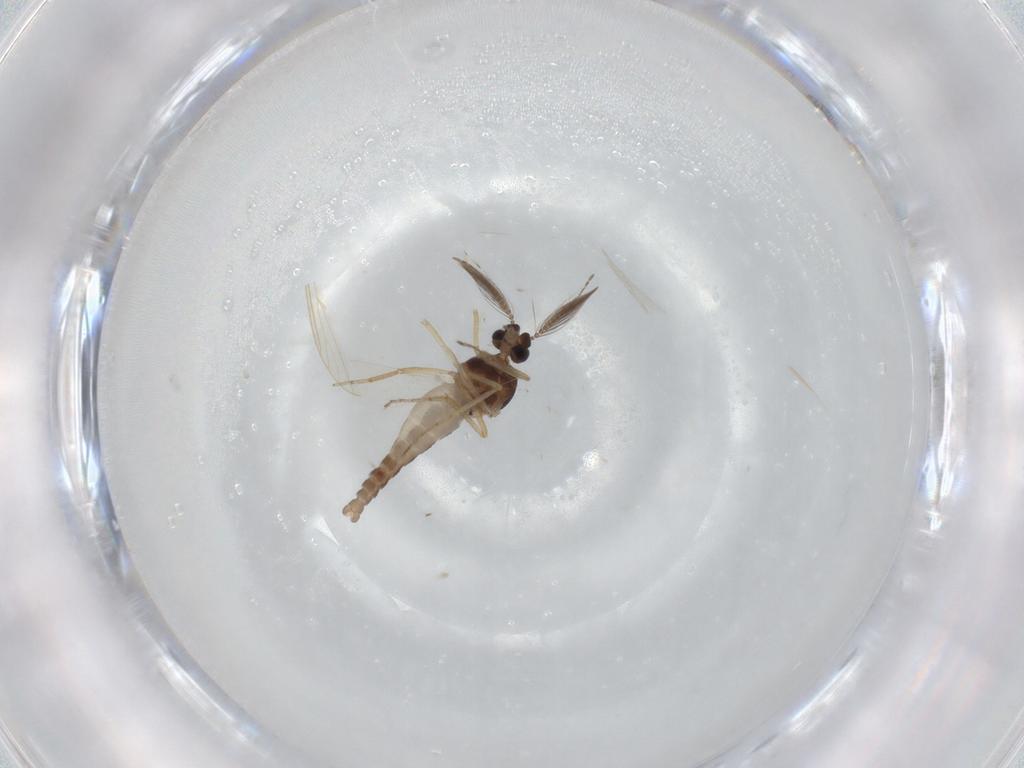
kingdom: Animalia
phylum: Arthropoda
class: Insecta
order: Diptera
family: Ceratopogonidae
